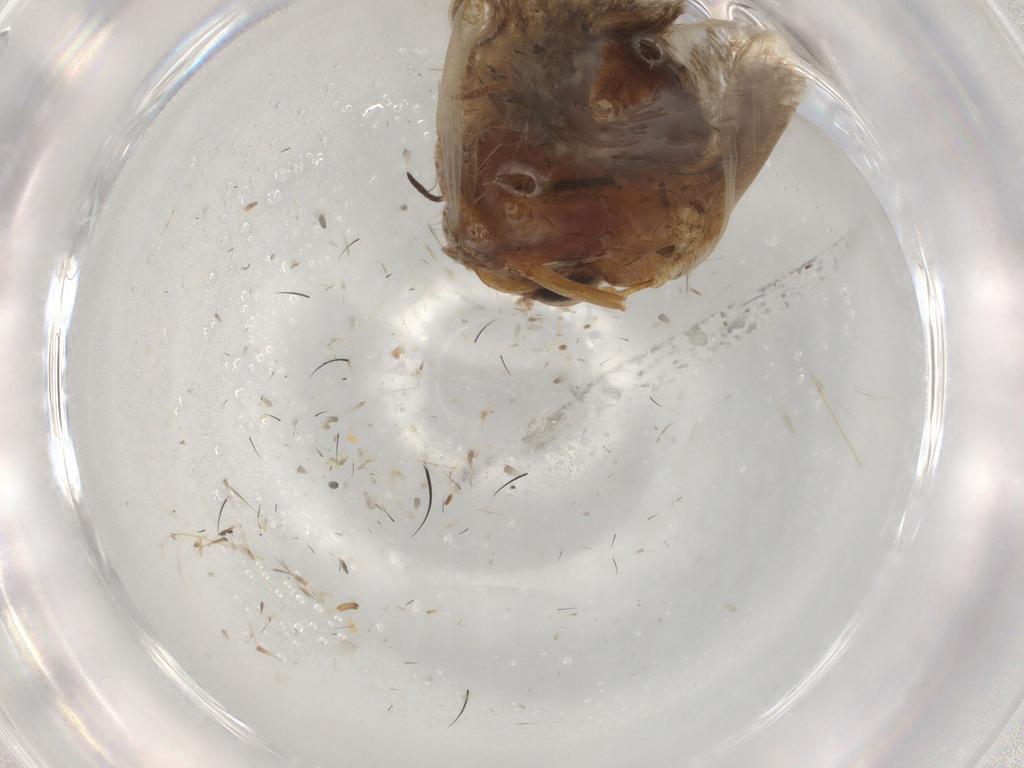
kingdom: Animalia
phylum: Arthropoda
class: Insecta
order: Lepidoptera
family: Blastobasidae
